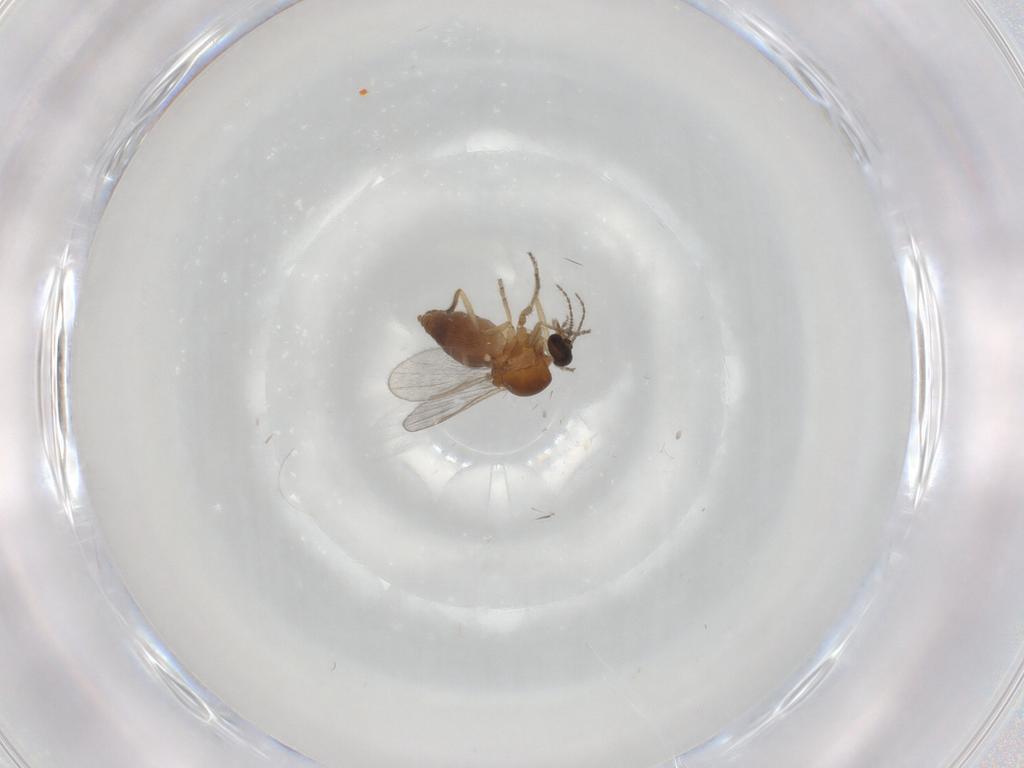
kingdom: Animalia
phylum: Arthropoda
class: Insecta
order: Diptera
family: Ceratopogonidae
